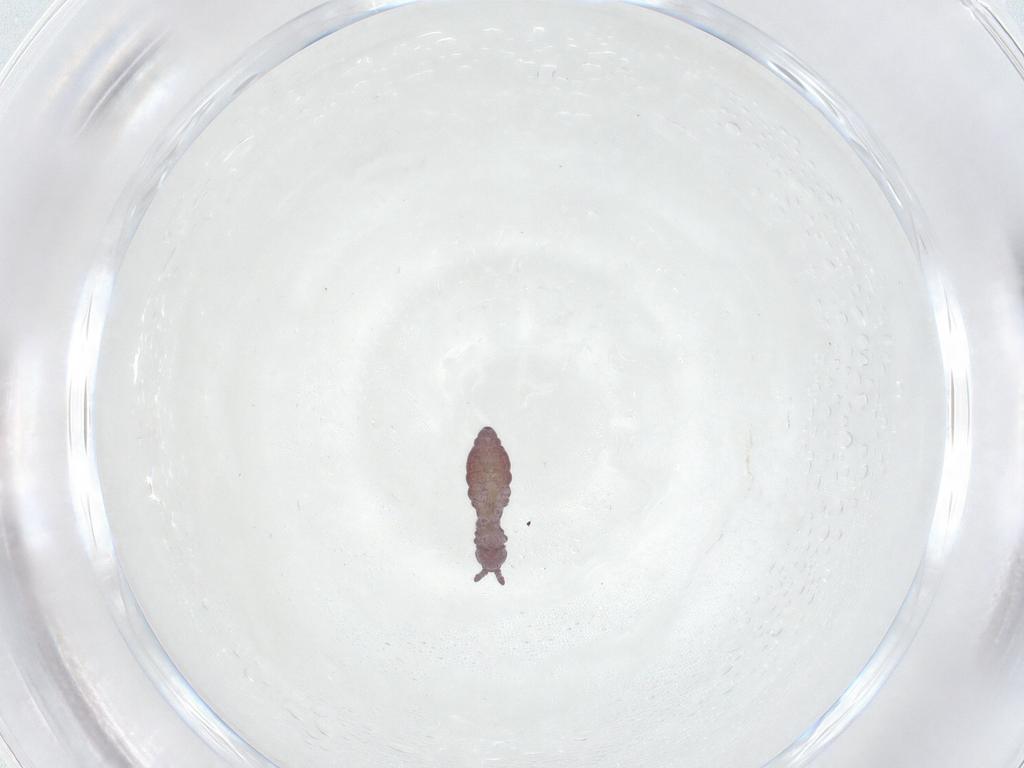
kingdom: Animalia
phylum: Arthropoda
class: Collembola
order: Poduromorpha
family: Hypogastruridae
